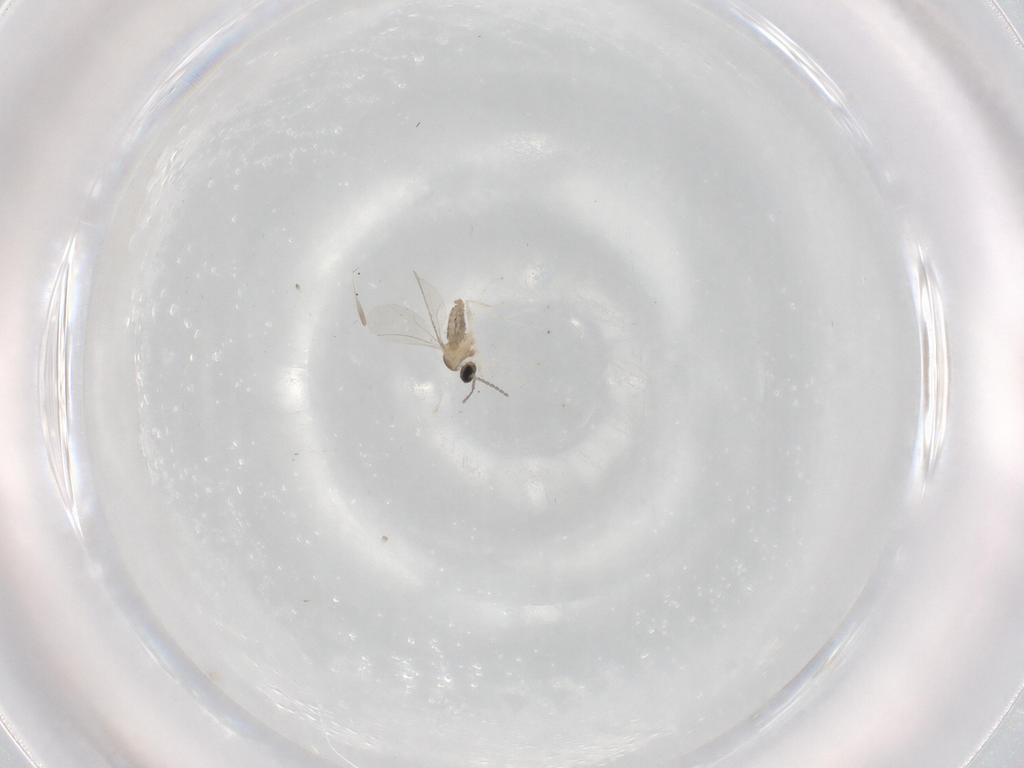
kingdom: Animalia
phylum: Arthropoda
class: Insecta
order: Diptera
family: Cecidomyiidae
